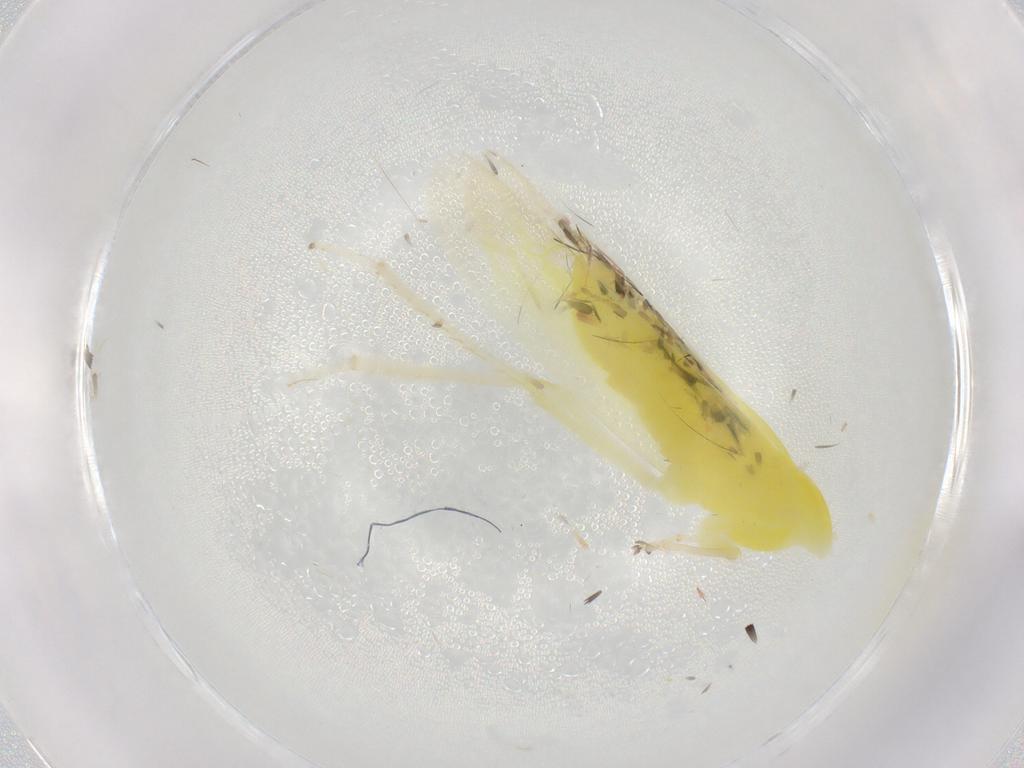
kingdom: Animalia
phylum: Arthropoda
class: Insecta
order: Hemiptera
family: Cicadellidae
